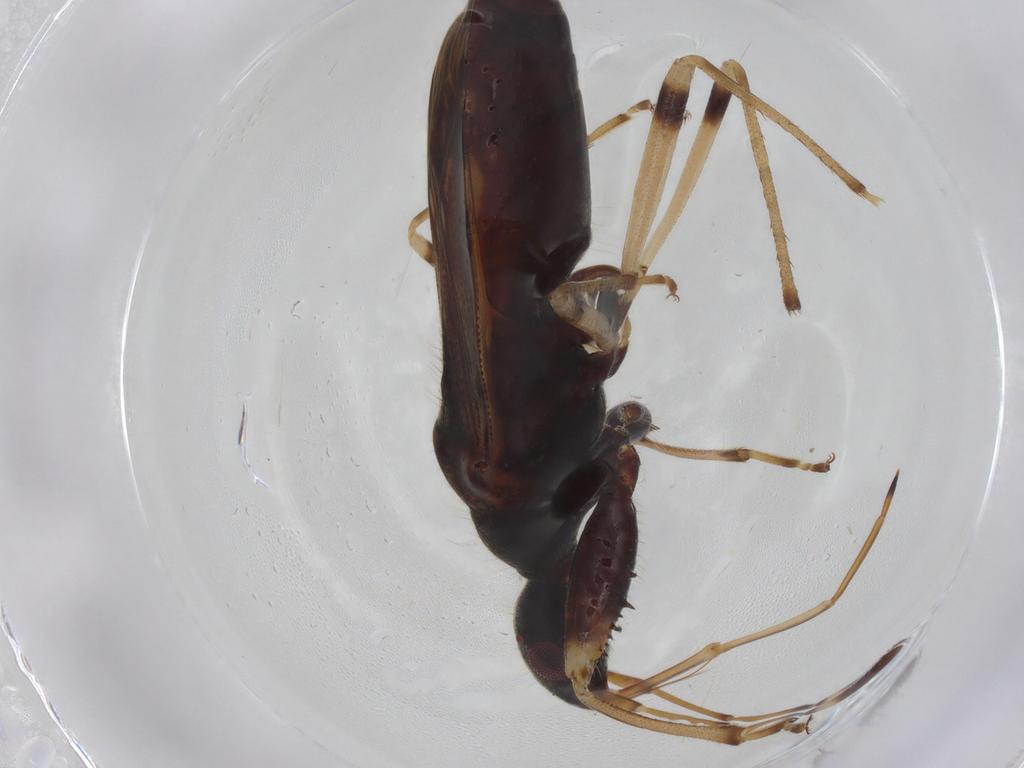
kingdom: Animalia
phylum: Arthropoda
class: Insecta
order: Hemiptera
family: Rhyparochromidae
